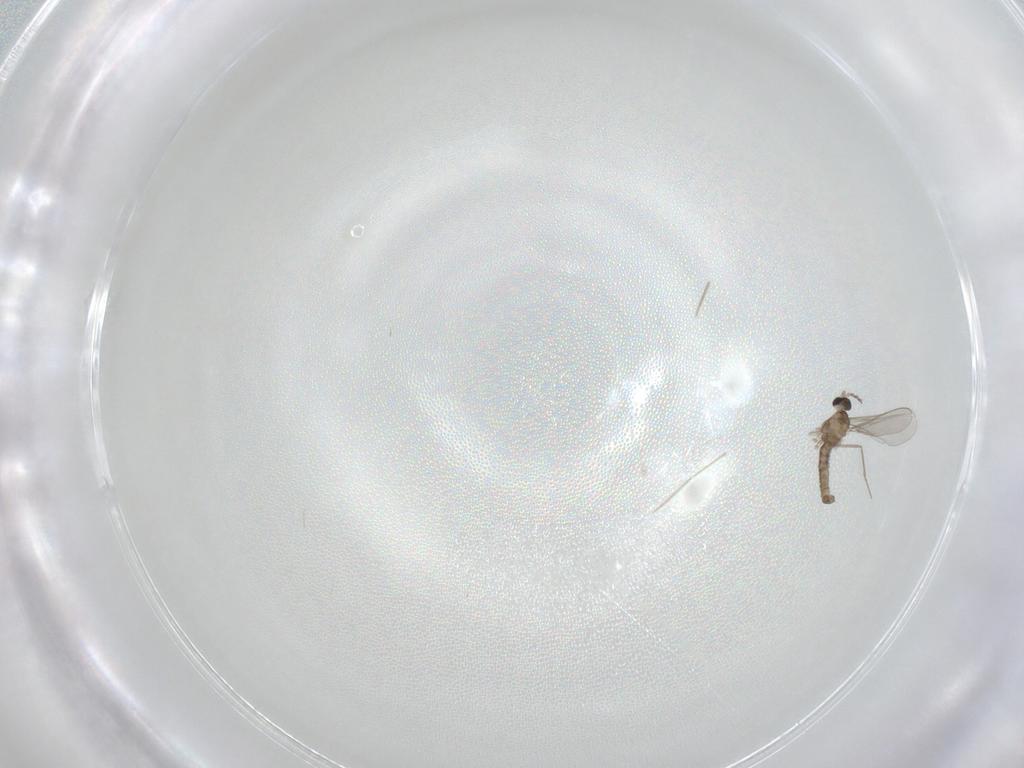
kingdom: Animalia
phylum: Arthropoda
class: Insecta
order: Diptera
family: Cecidomyiidae
